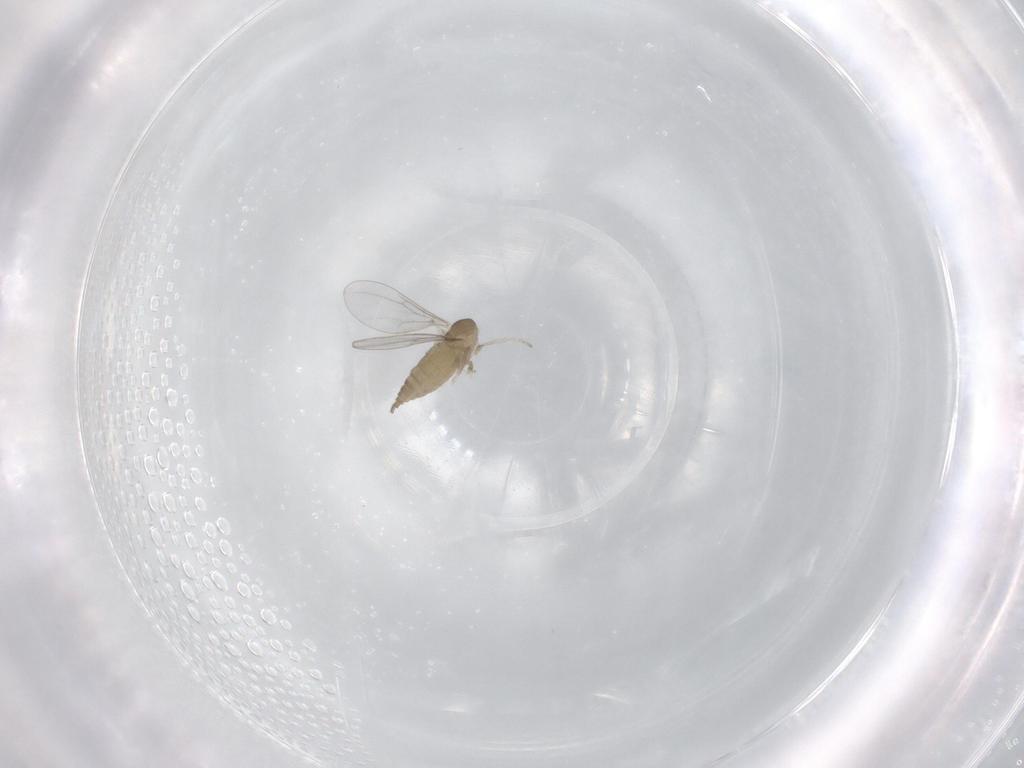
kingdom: Animalia
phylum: Arthropoda
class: Insecta
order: Diptera
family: Cecidomyiidae
